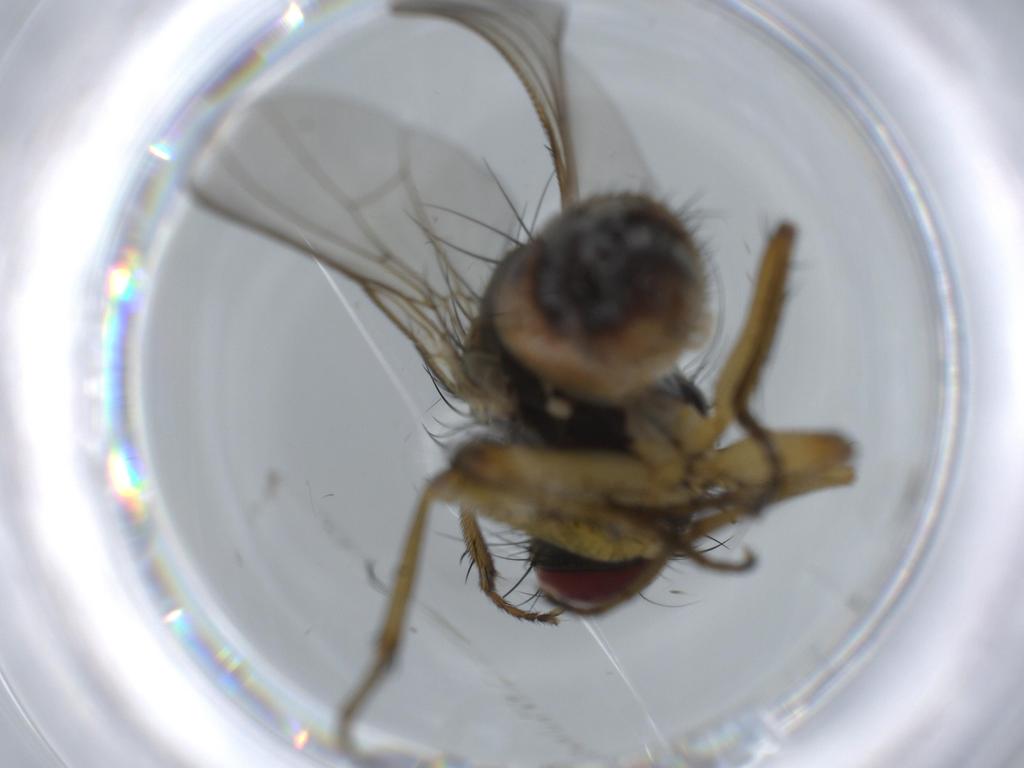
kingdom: Animalia
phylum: Arthropoda
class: Insecta
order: Diptera
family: Muscidae
